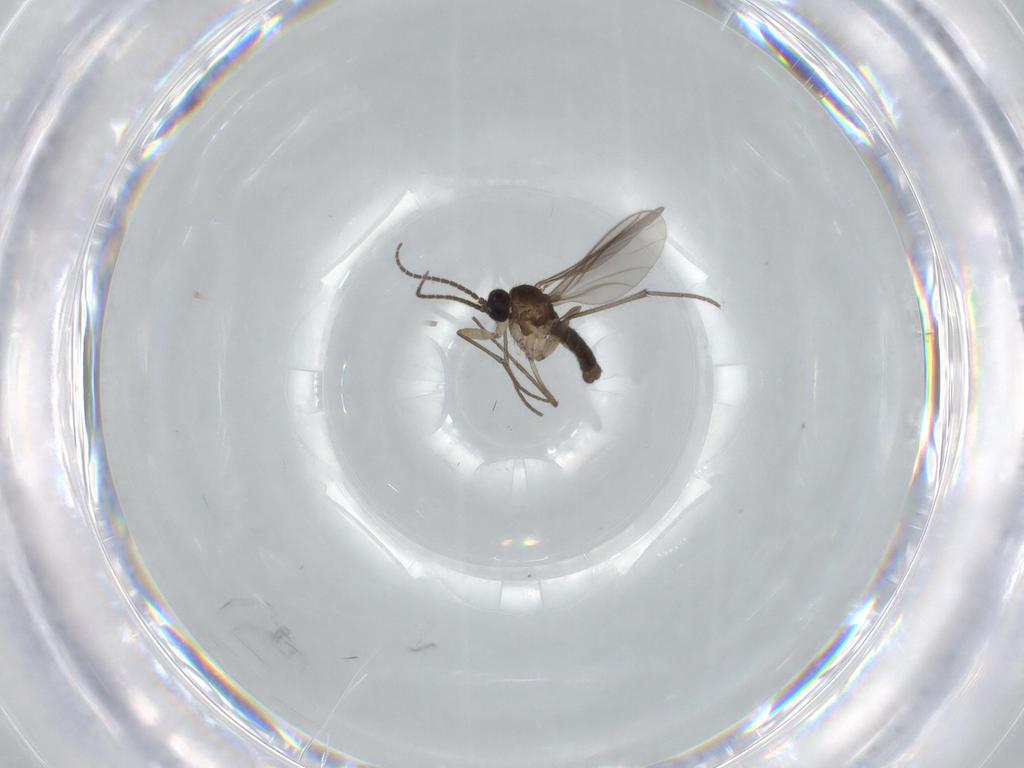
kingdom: Animalia
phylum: Arthropoda
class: Insecta
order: Diptera
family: Sciaridae
